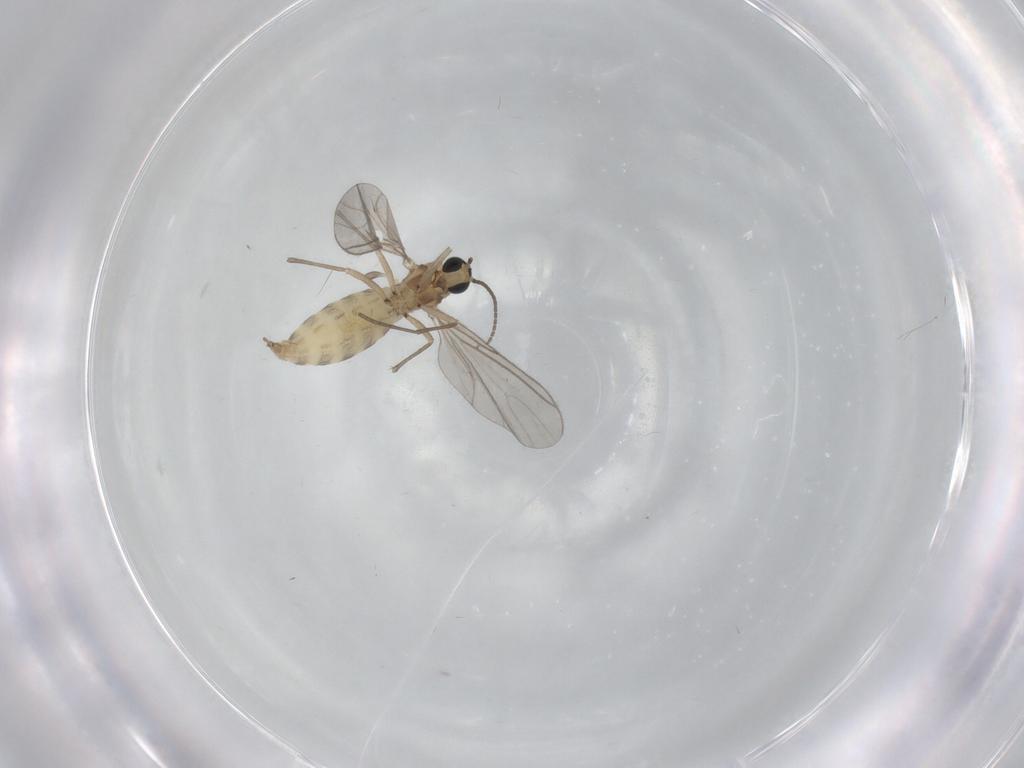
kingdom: Animalia
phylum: Arthropoda
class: Insecta
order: Diptera
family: Sciaridae
